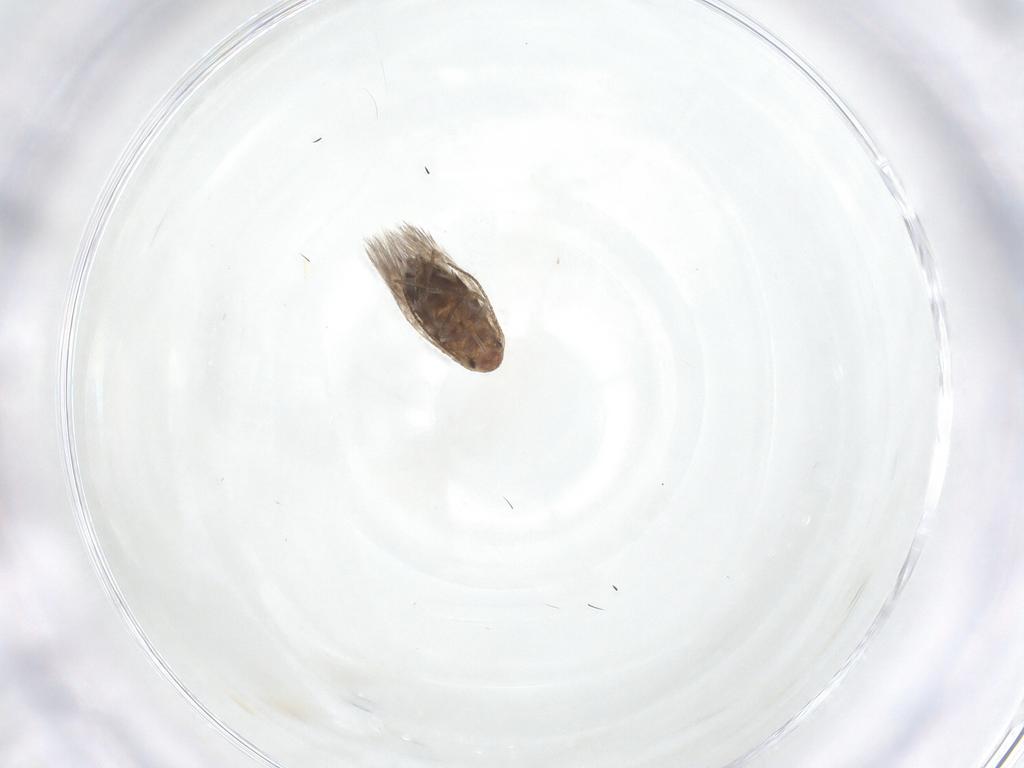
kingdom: Animalia
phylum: Arthropoda
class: Insecta
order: Lepidoptera
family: Lyonetiidae
